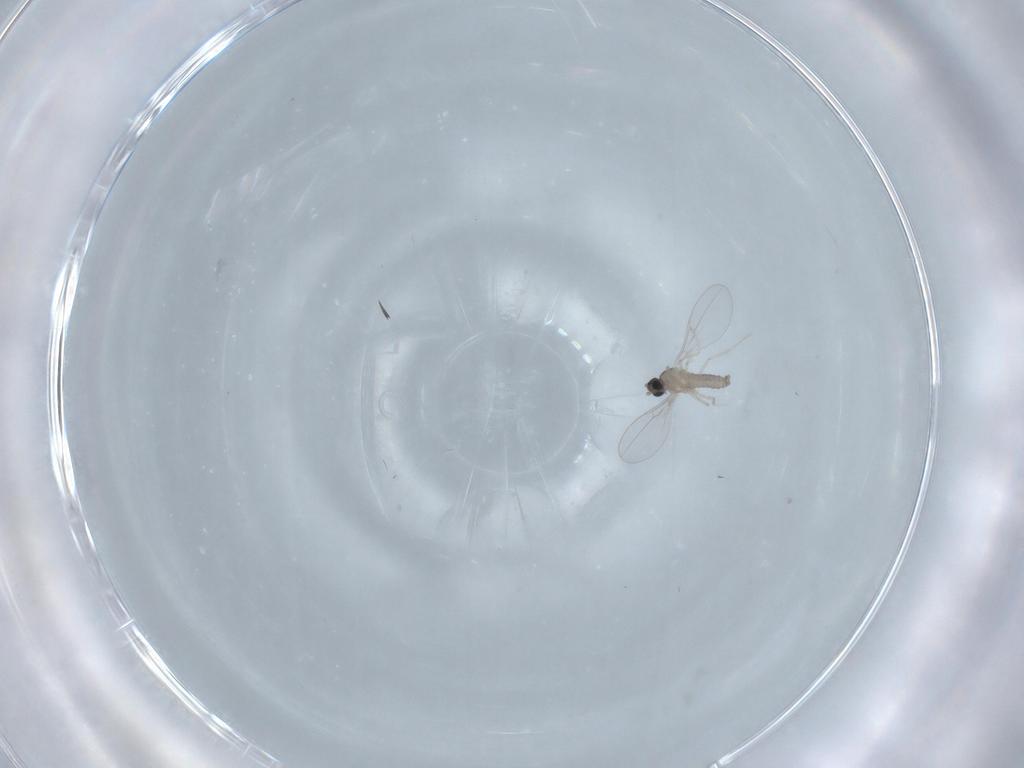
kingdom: Animalia
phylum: Arthropoda
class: Insecta
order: Diptera
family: Cecidomyiidae
